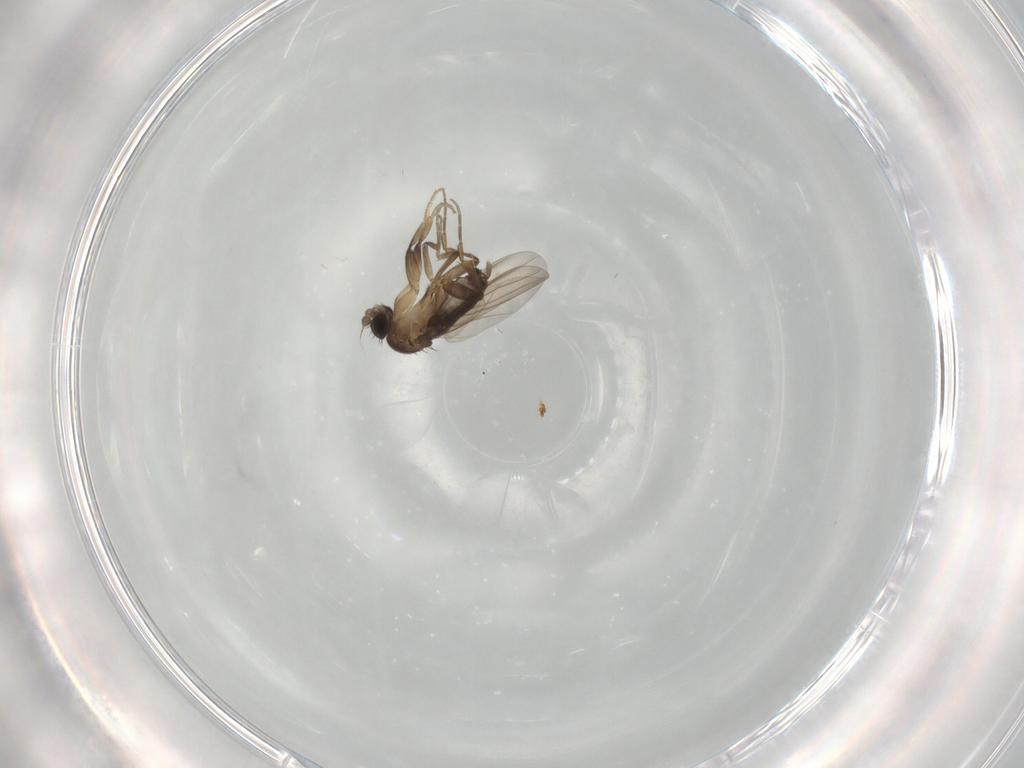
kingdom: Animalia
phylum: Arthropoda
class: Insecta
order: Diptera
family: Phoridae
